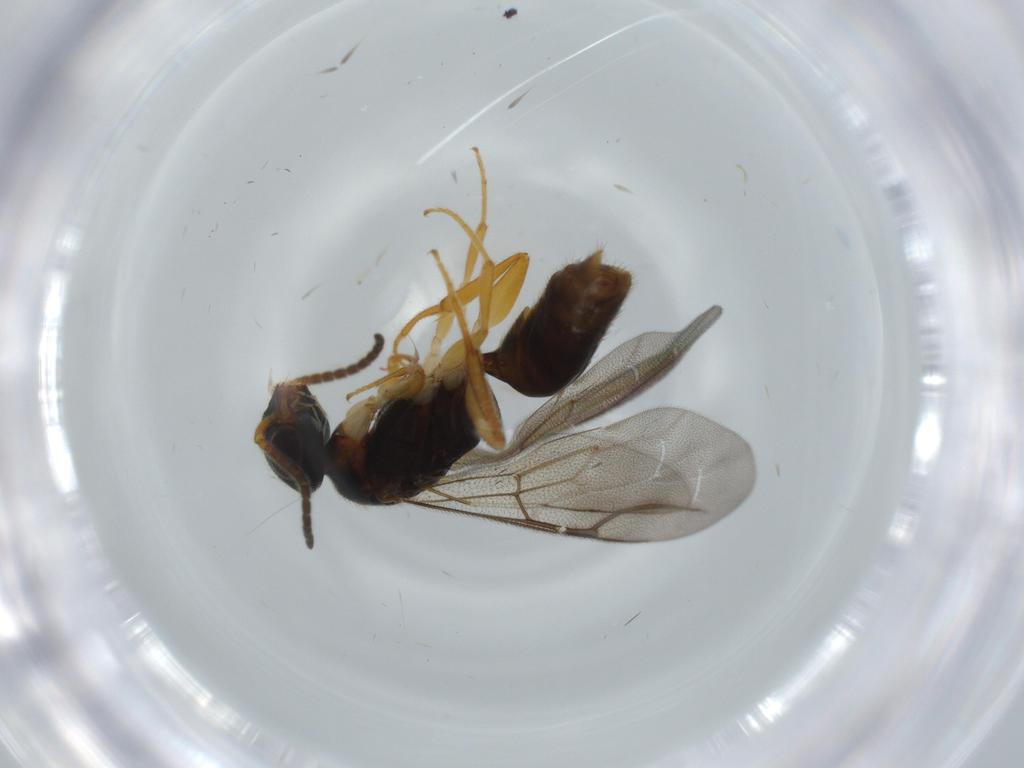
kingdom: Animalia
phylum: Arthropoda
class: Insecta
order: Hymenoptera
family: Bethylidae
